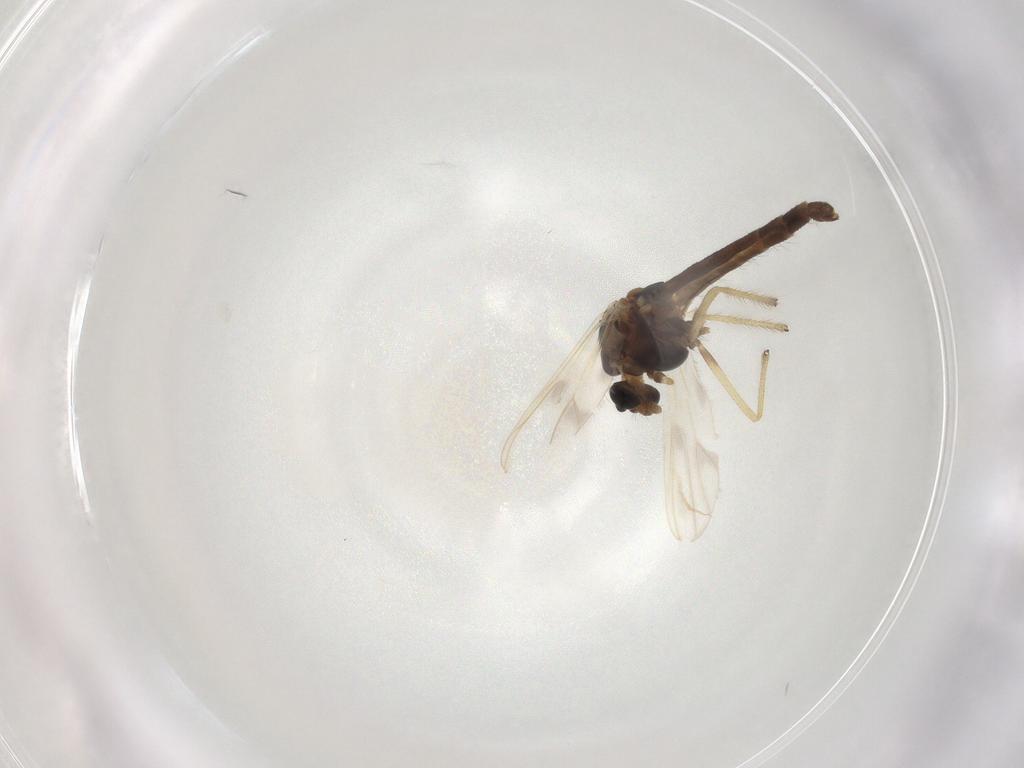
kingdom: Animalia
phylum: Arthropoda
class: Insecta
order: Diptera
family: Chironomidae
